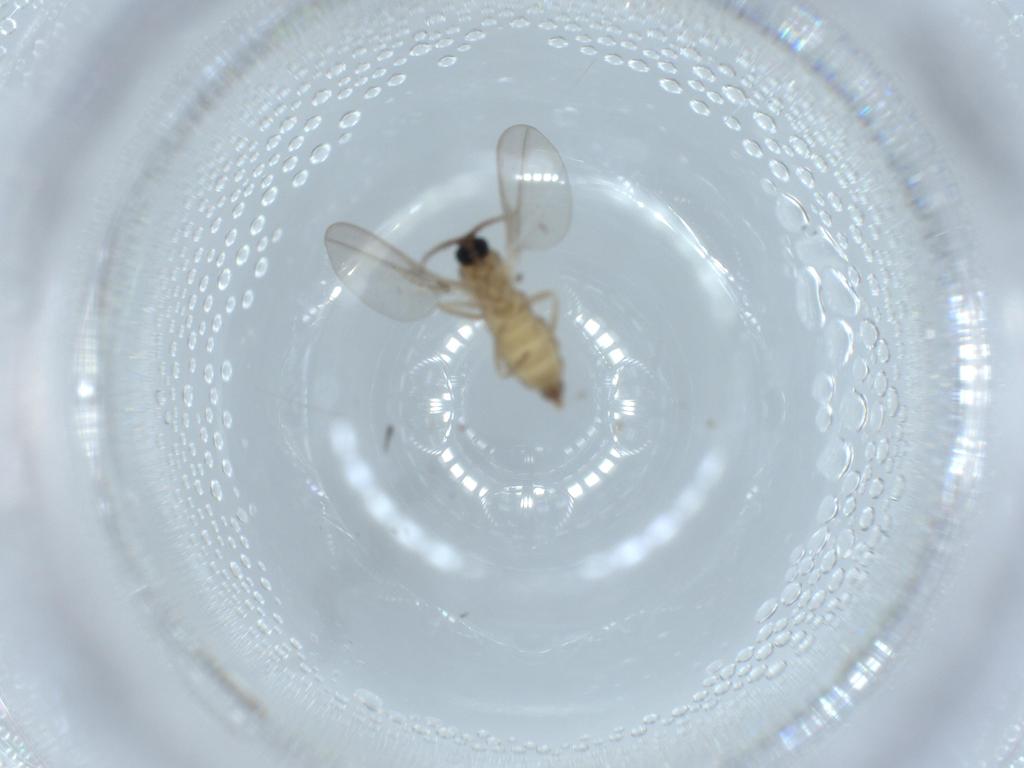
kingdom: Animalia
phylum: Arthropoda
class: Insecta
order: Diptera
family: Cecidomyiidae
